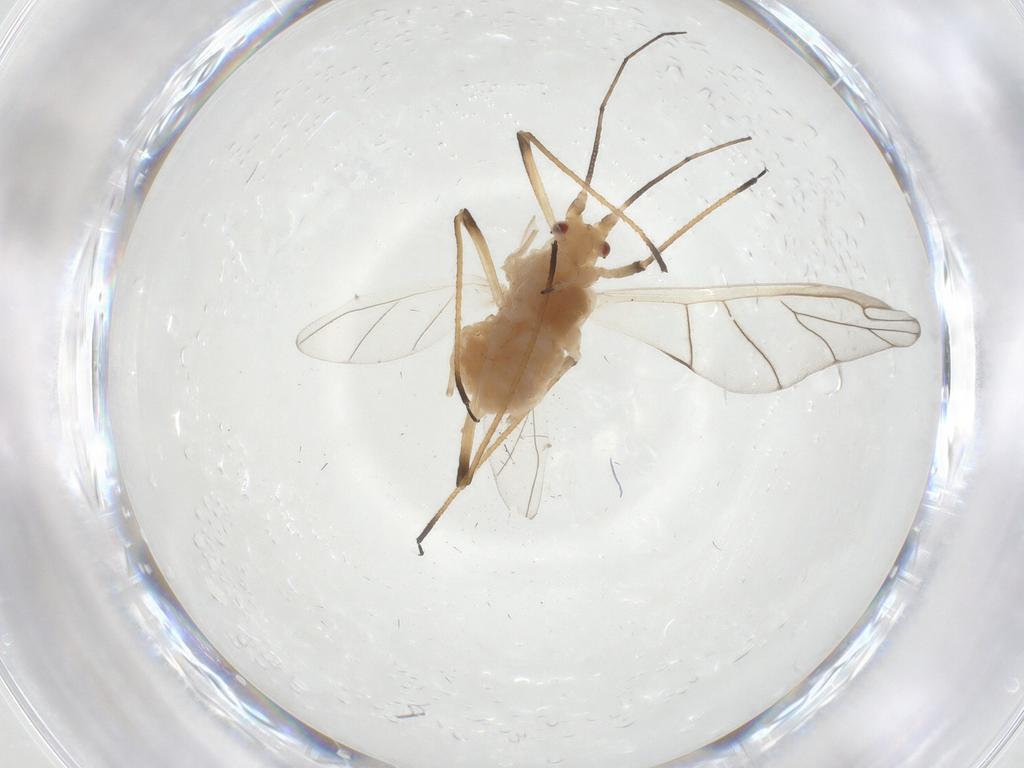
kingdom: Animalia
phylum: Arthropoda
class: Insecta
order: Hemiptera
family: Aphididae
